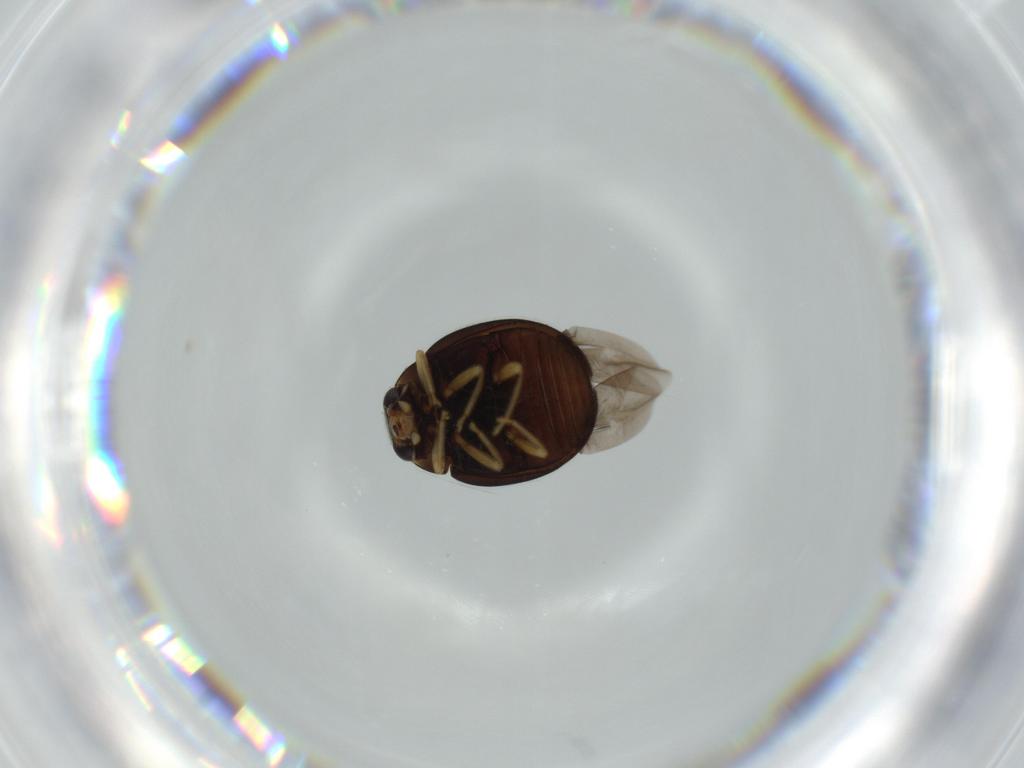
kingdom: Animalia
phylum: Arthropoda
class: Insecta
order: Coleoptera
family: Coccinellidae
